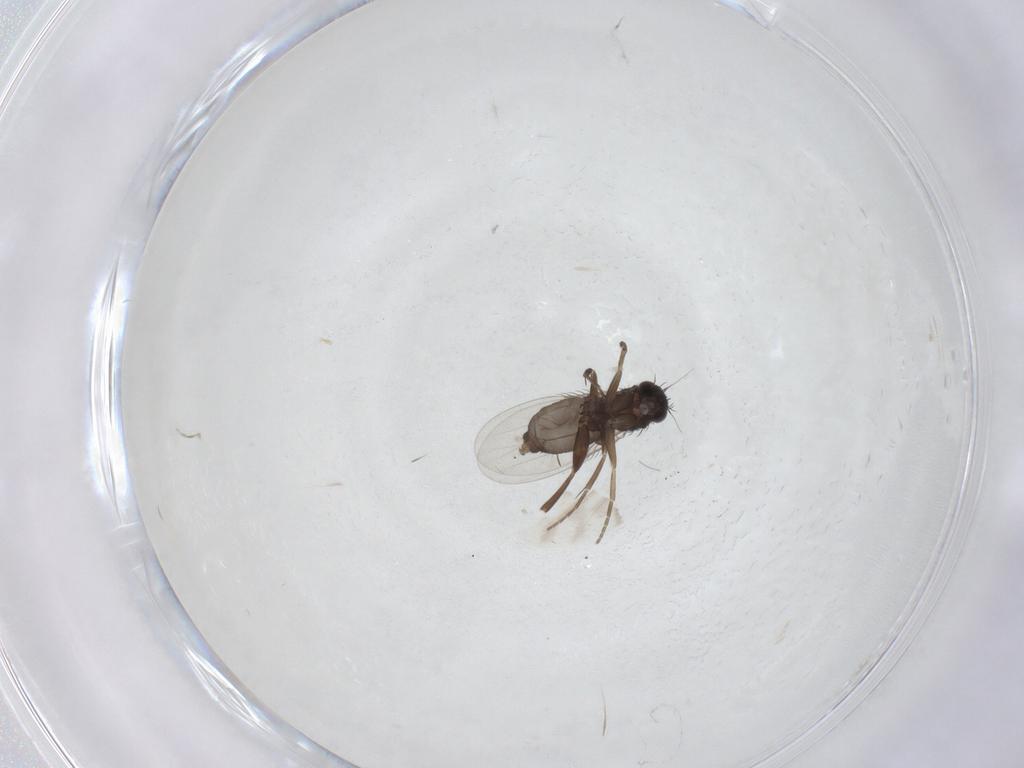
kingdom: Animalia
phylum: Arthropoda
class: Insecta
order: Diptera
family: Phoridae
